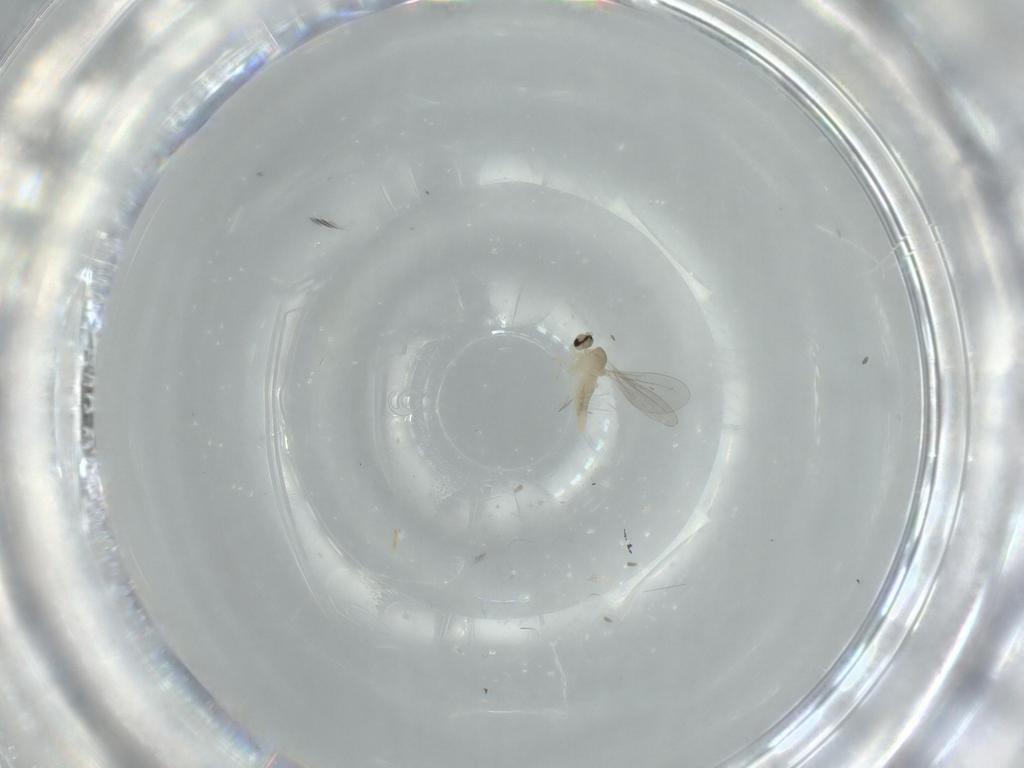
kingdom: Animalia
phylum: Arthropoda
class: Insecta
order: Diptera
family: Cecidomyiidae
